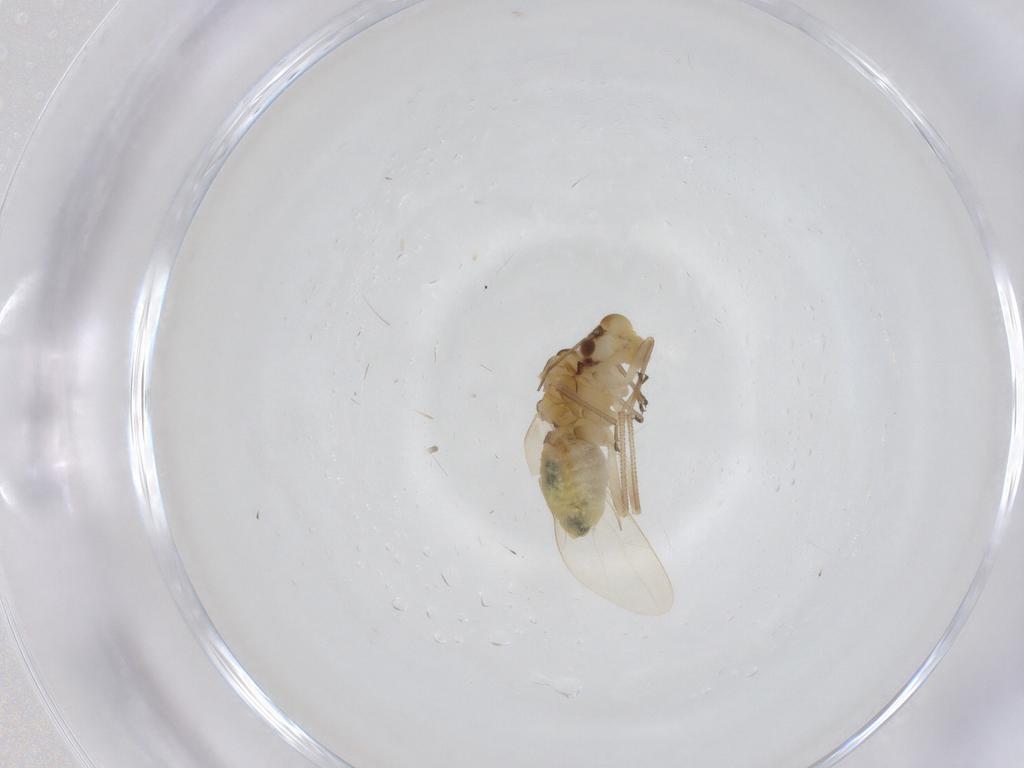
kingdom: Animalia
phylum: Arthropoda
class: Insecta
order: Psocodea
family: Caeciliusidae
